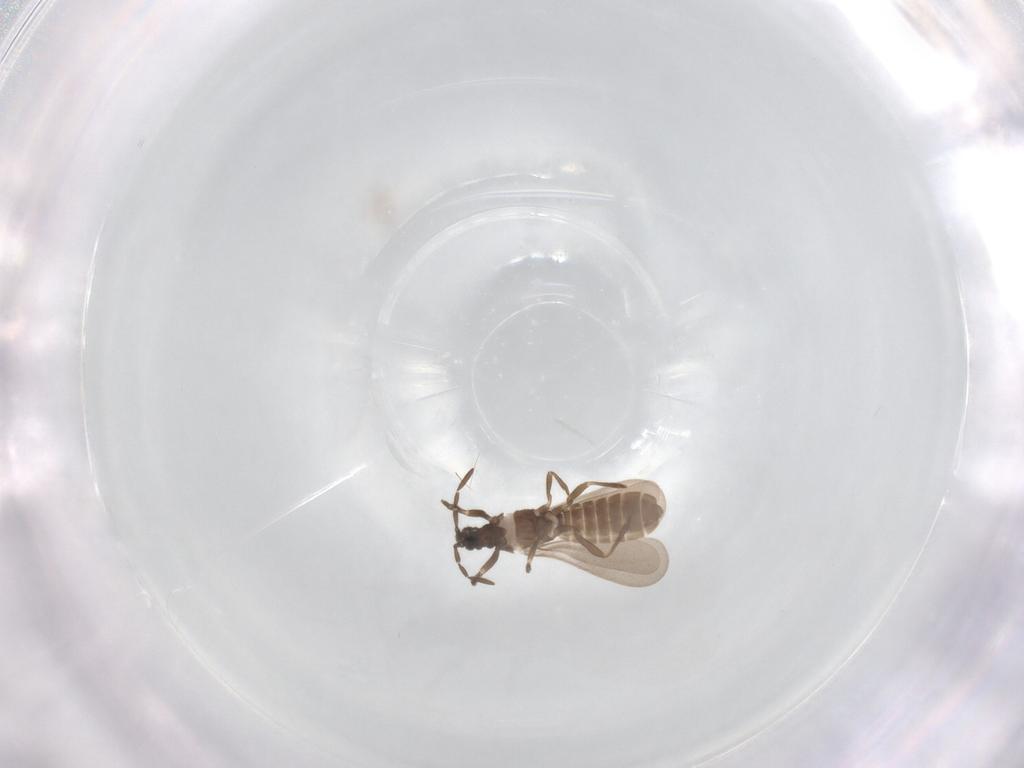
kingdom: Animalia
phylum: Arthropoda
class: Insecta
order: Hemiptera
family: Enicocephalidae
